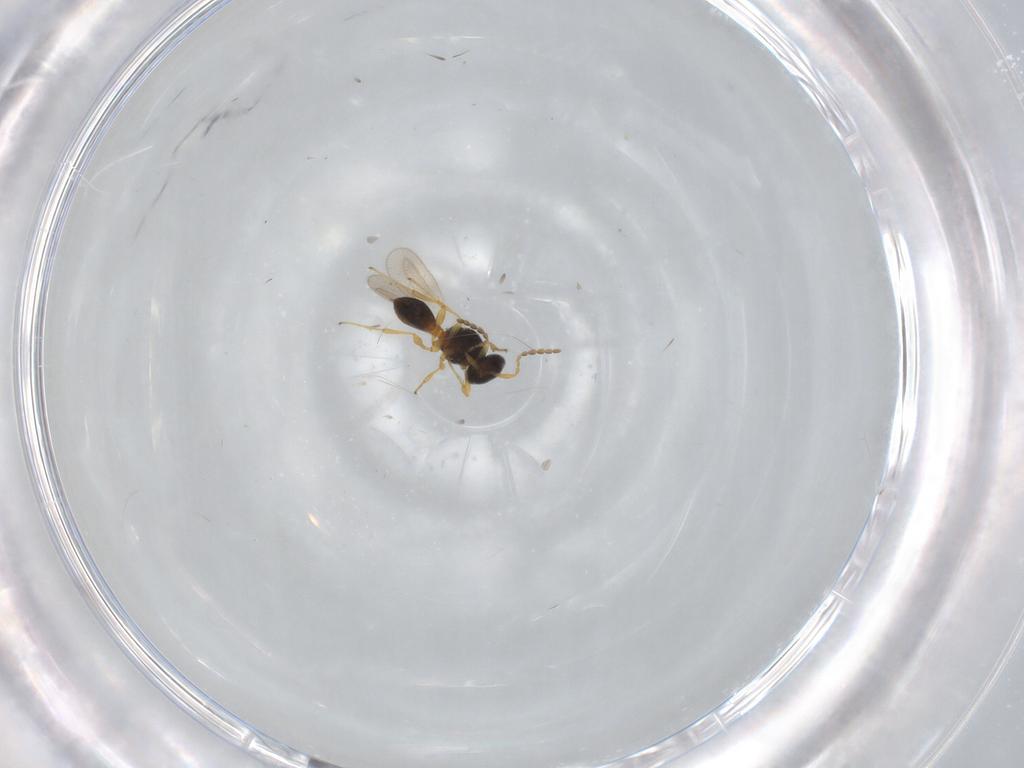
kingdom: Animalia
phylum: Arthropoda
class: Insecta
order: Hymenoptera
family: Platygastridae
